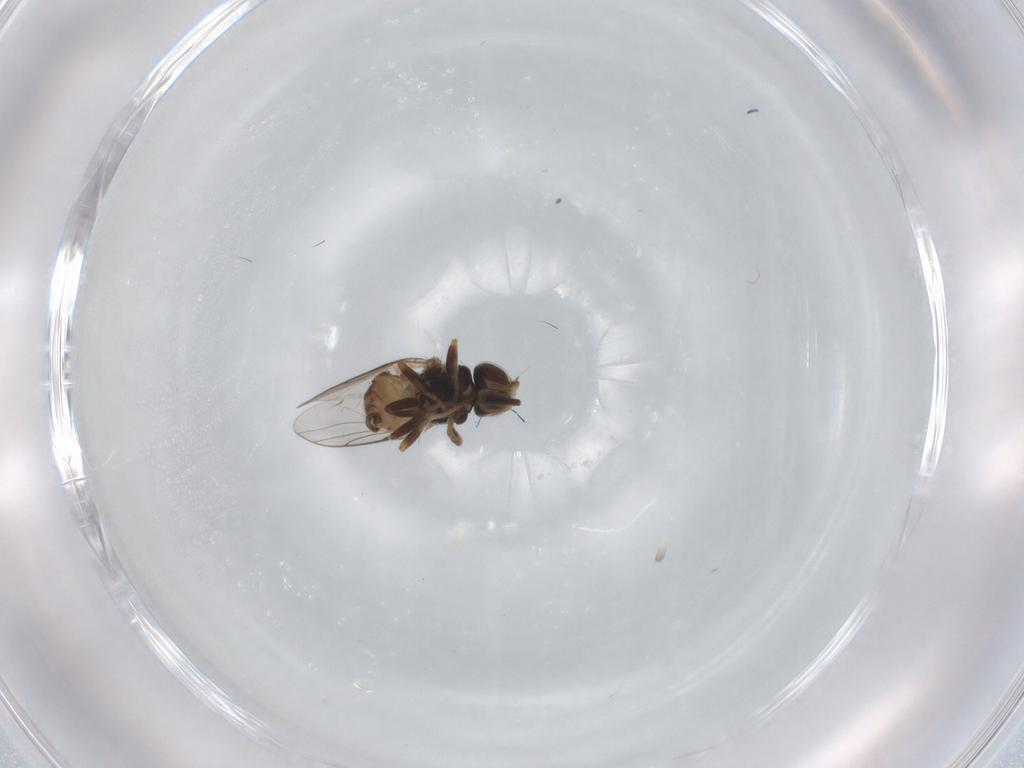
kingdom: Animalia
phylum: Arthropoda
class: Insecta
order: Diptera
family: Chloropidae
